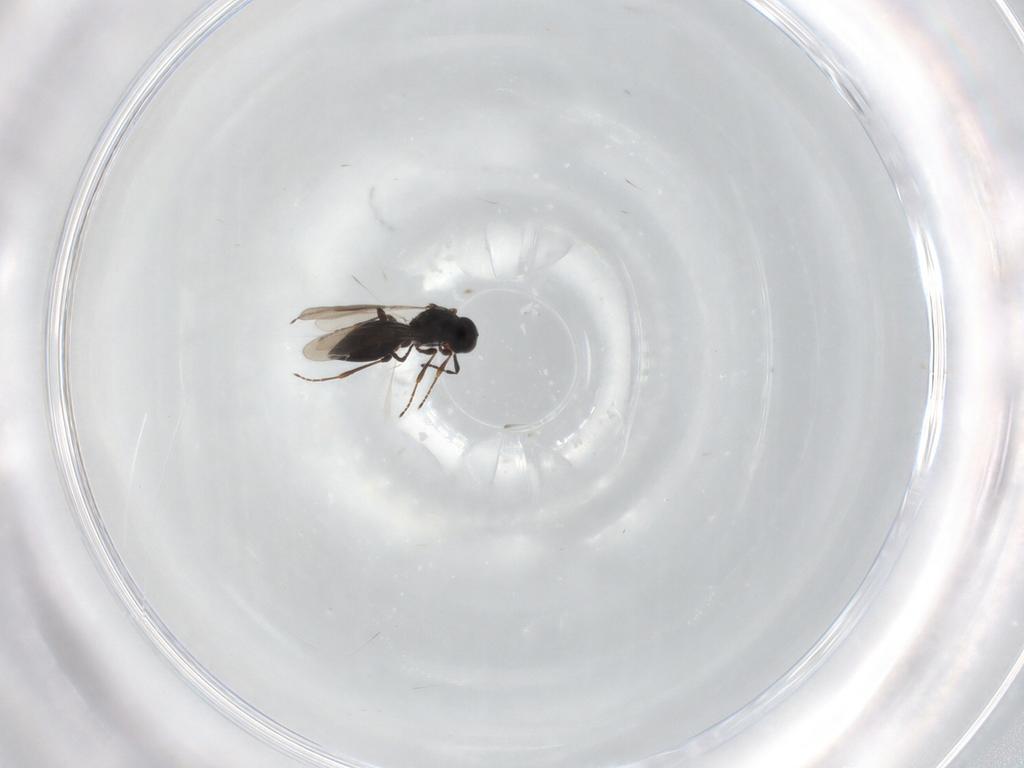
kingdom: Animalia
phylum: Arthropoda
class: Insecta
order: Hymenoptera
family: Platygastridae
